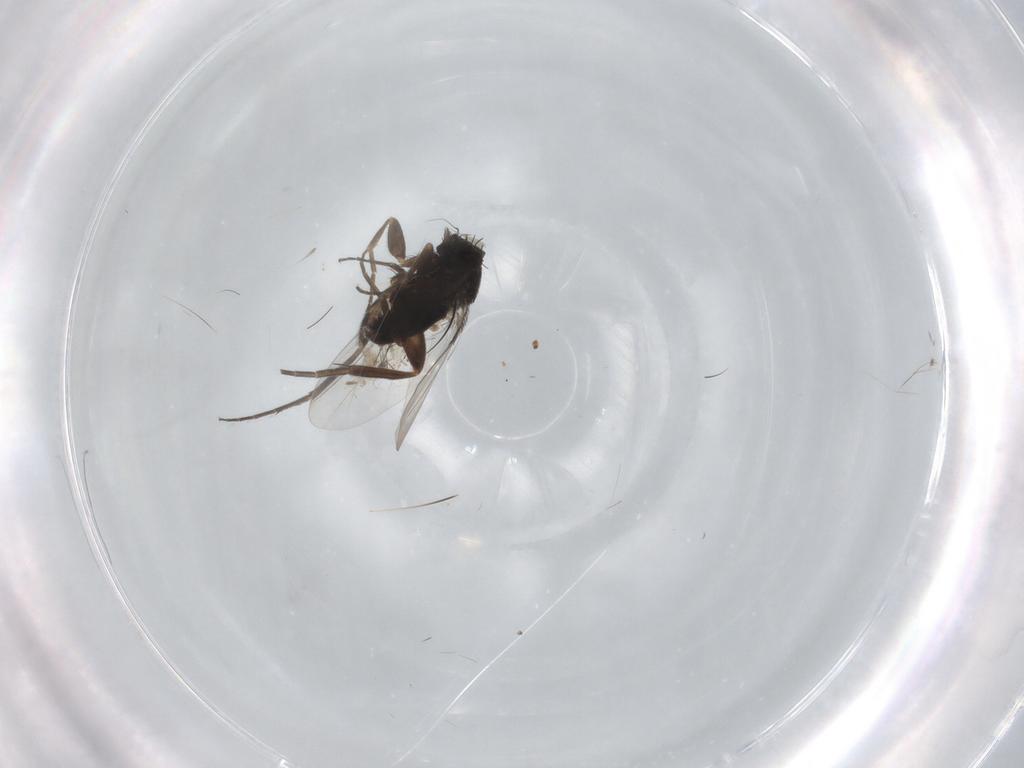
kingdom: Animalia
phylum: Arthropoda
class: Insecta
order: Diptera
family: Phoridae
